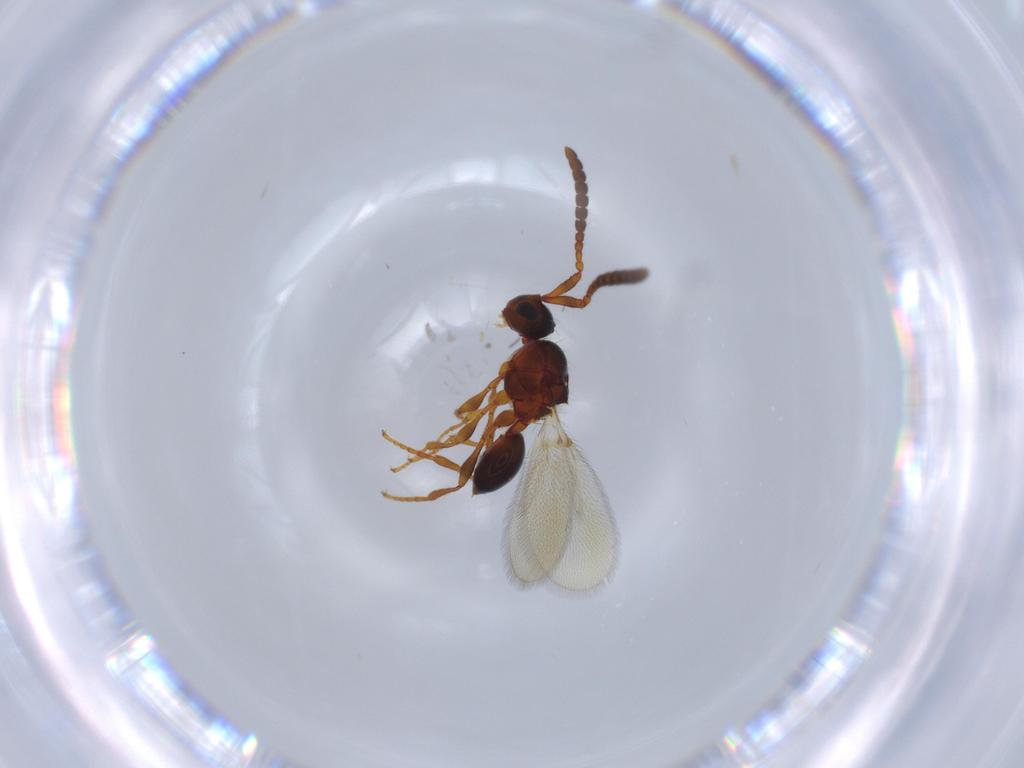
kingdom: Animalia
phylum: Arthropoda
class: Insecta
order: Hymenoptera
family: Diapriidae
